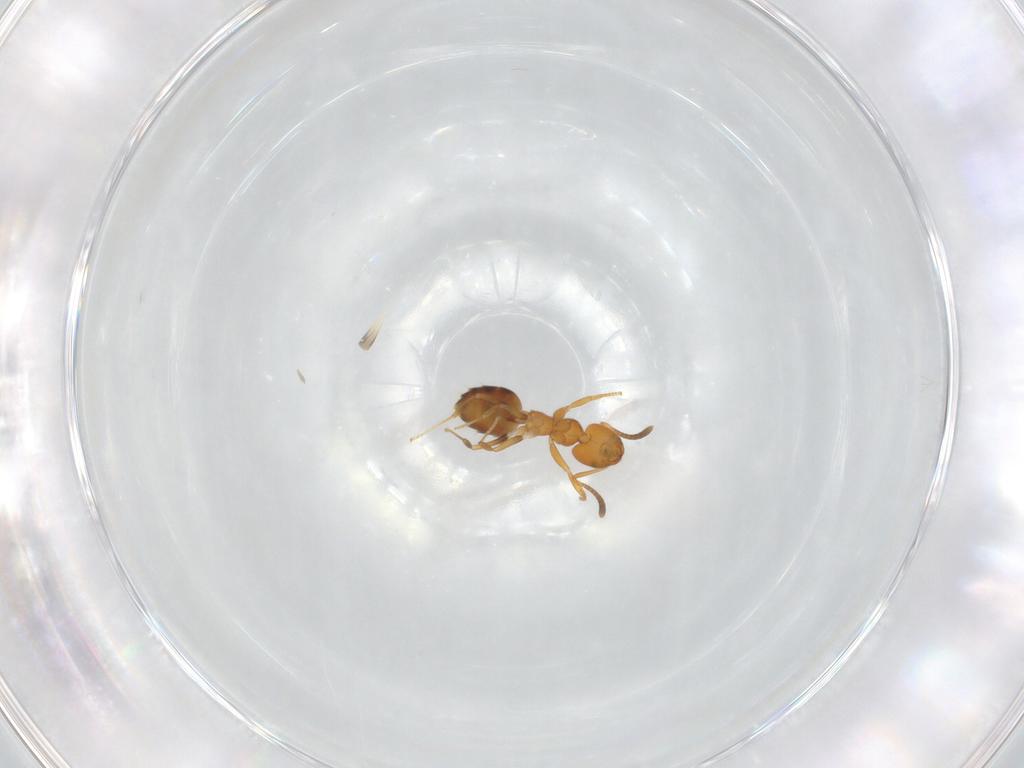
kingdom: Animalia
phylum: Arthropoda
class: Insecta
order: Hymenoptera
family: Formicidae
